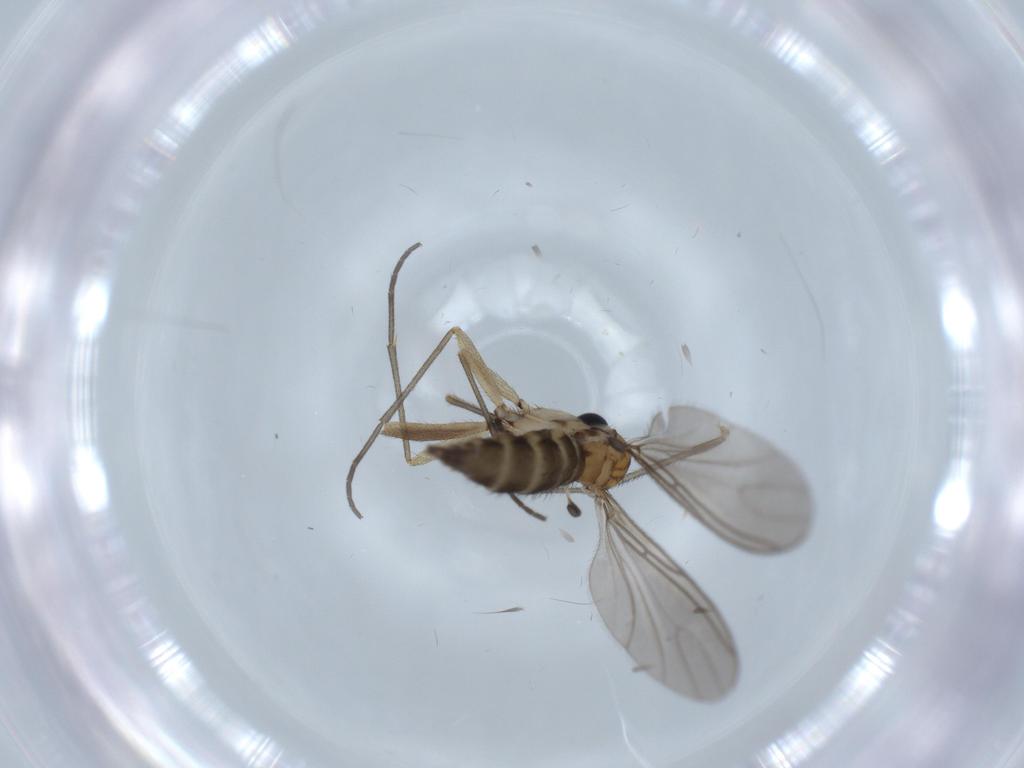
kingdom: Animalia
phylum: Arthropoda
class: Insecta
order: Diptera
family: Sciaridae
